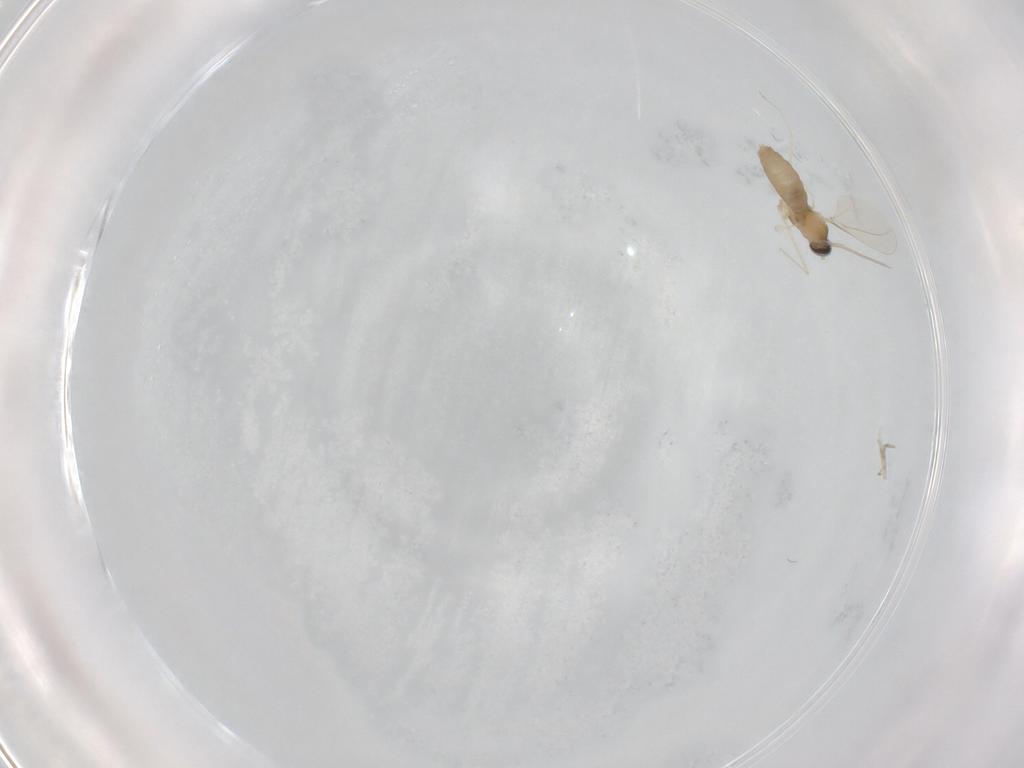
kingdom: Animalia
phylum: Arthropoda
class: Insecta
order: Diptera
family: Cecidomyiidae
